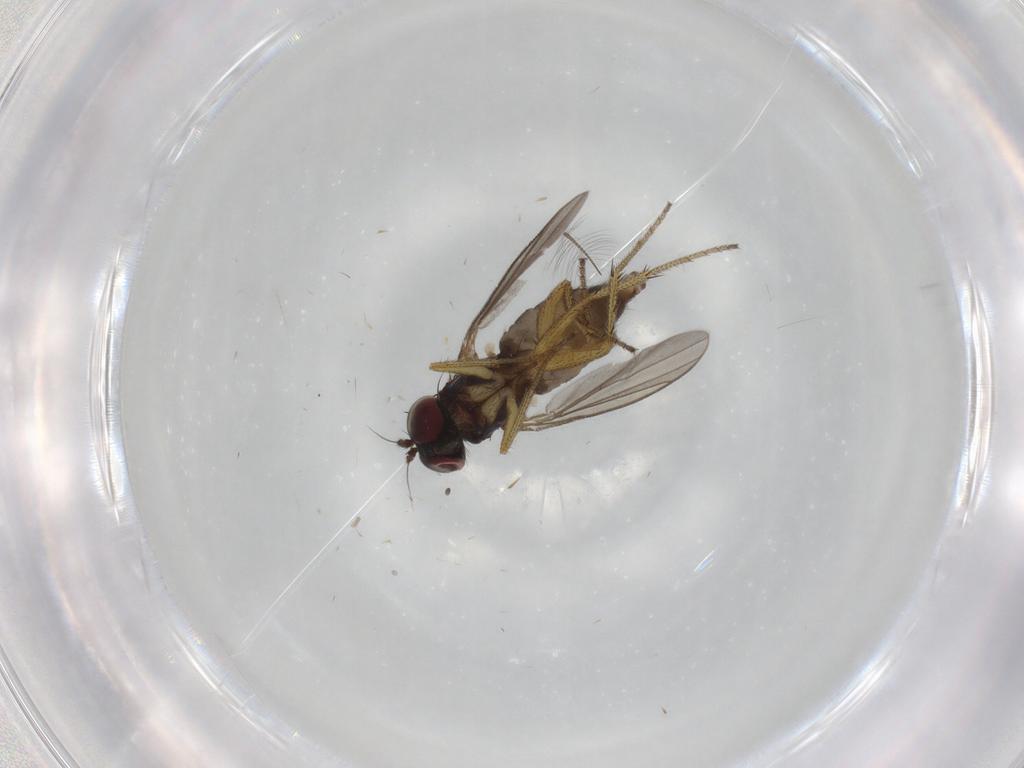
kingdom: Animalia
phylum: Arthropoda
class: Insecta
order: Diptera
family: Dolichopodidae
